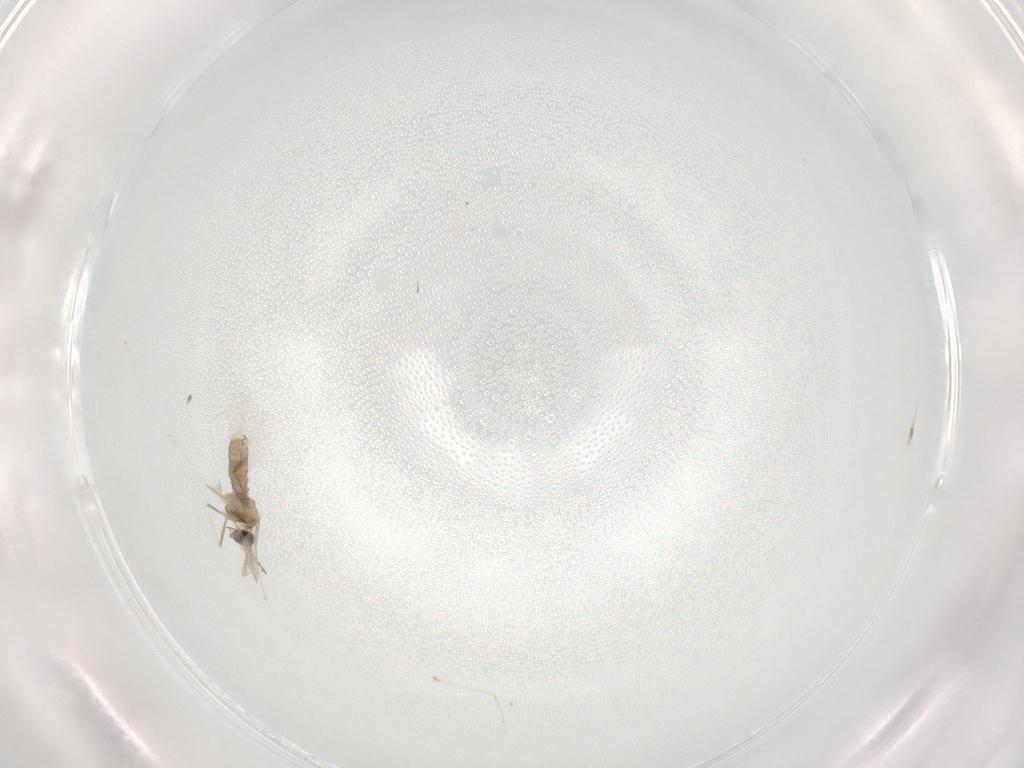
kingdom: Animalia
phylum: Arthropoda
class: Insecta
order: Diptera
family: Cecidomyiidae
